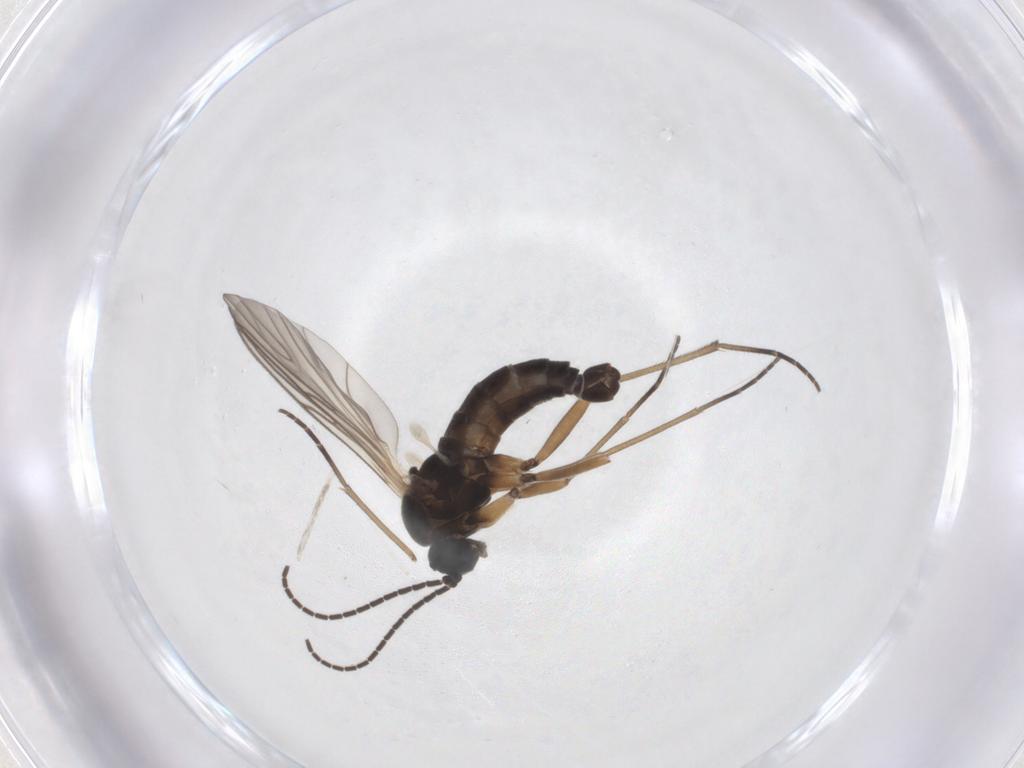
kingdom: Animalia
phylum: Arthropoda
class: Insecta
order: Diptera
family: Sciaridae
